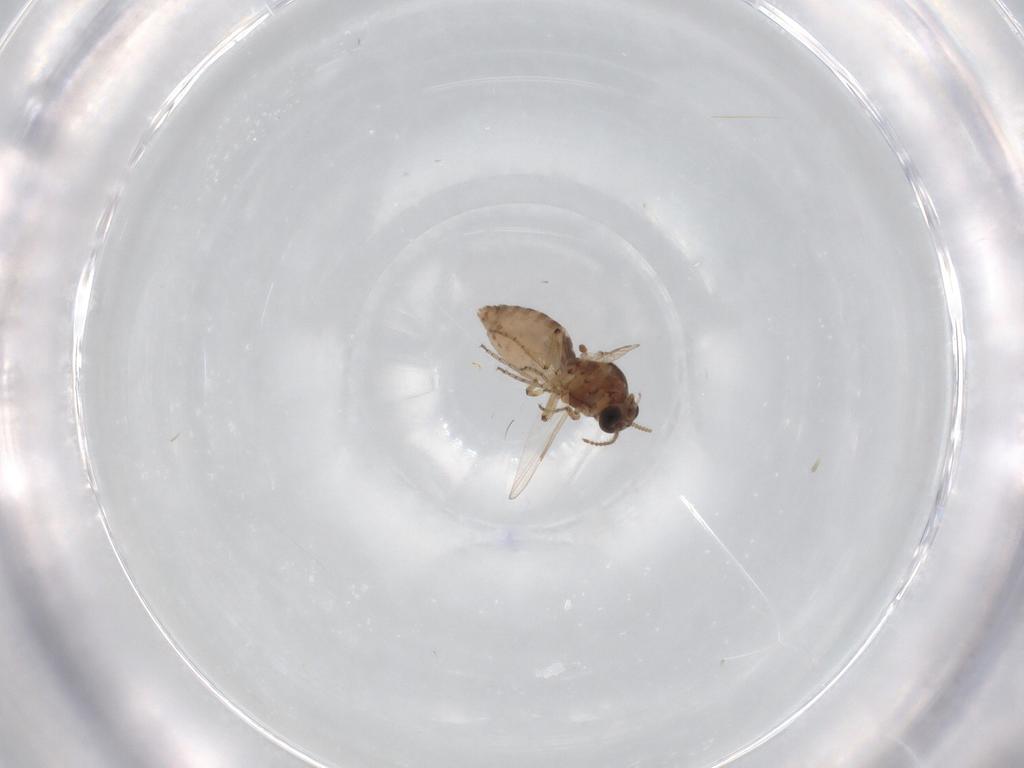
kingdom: Animalia
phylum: Arthropoda
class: Insecta
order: Diptera
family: Ceratopogonidae
